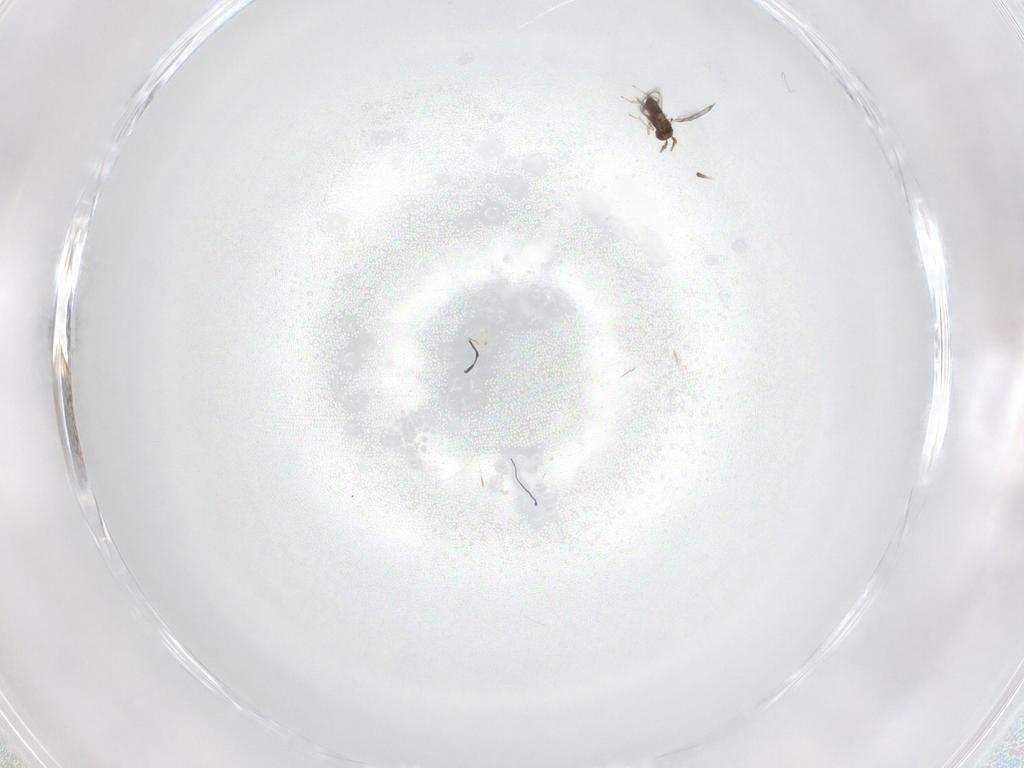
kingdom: Animalia
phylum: Arthropoda
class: Insecta
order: Hymenoptera
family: Trichogrammatidae
